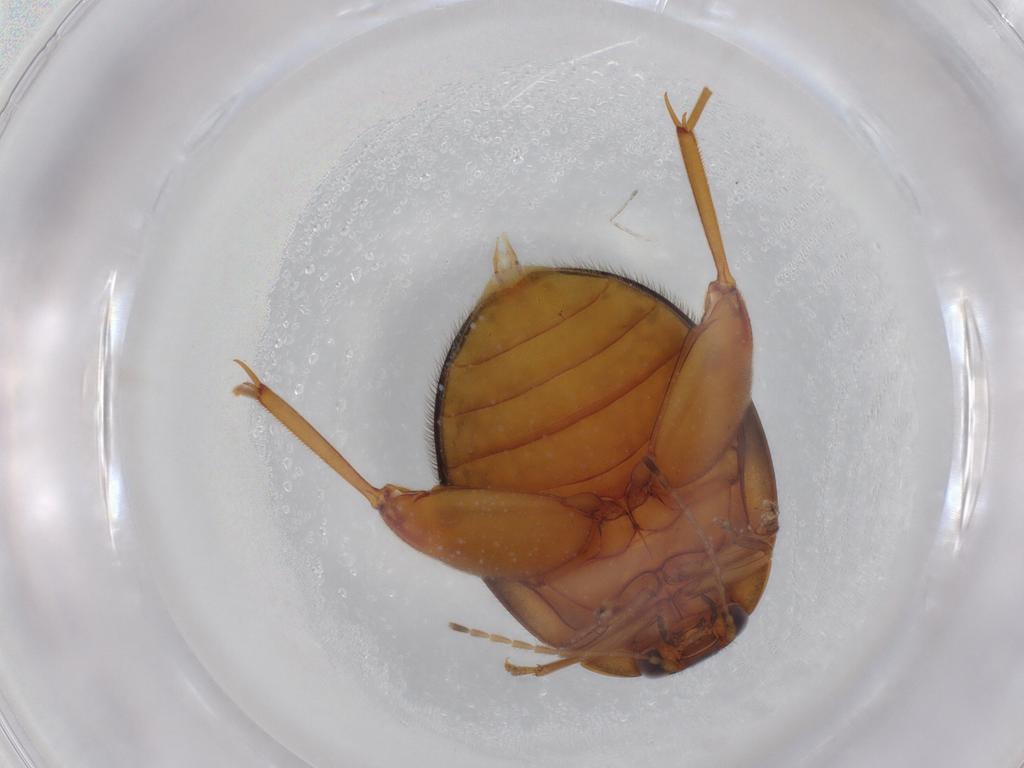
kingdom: Animalia
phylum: Arthropoda
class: Insecta
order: Coleoptera
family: Scirtidae
